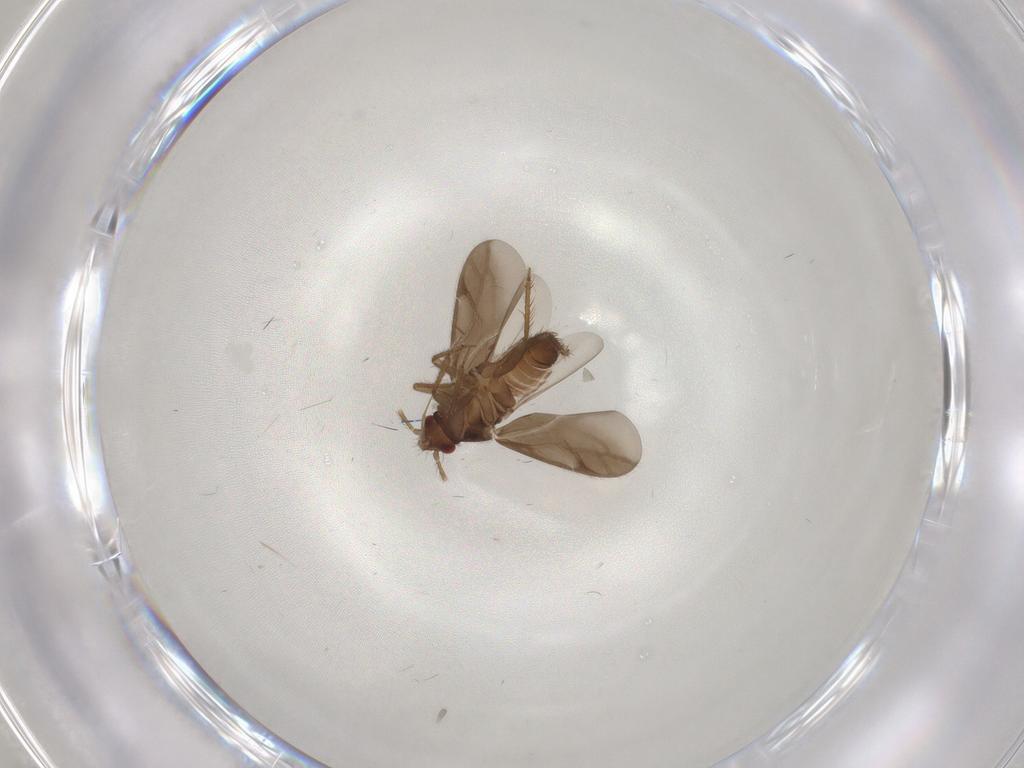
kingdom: Animalia
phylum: Arthropoda
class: Insecta
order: Hemiptera
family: Ceratocombidae
